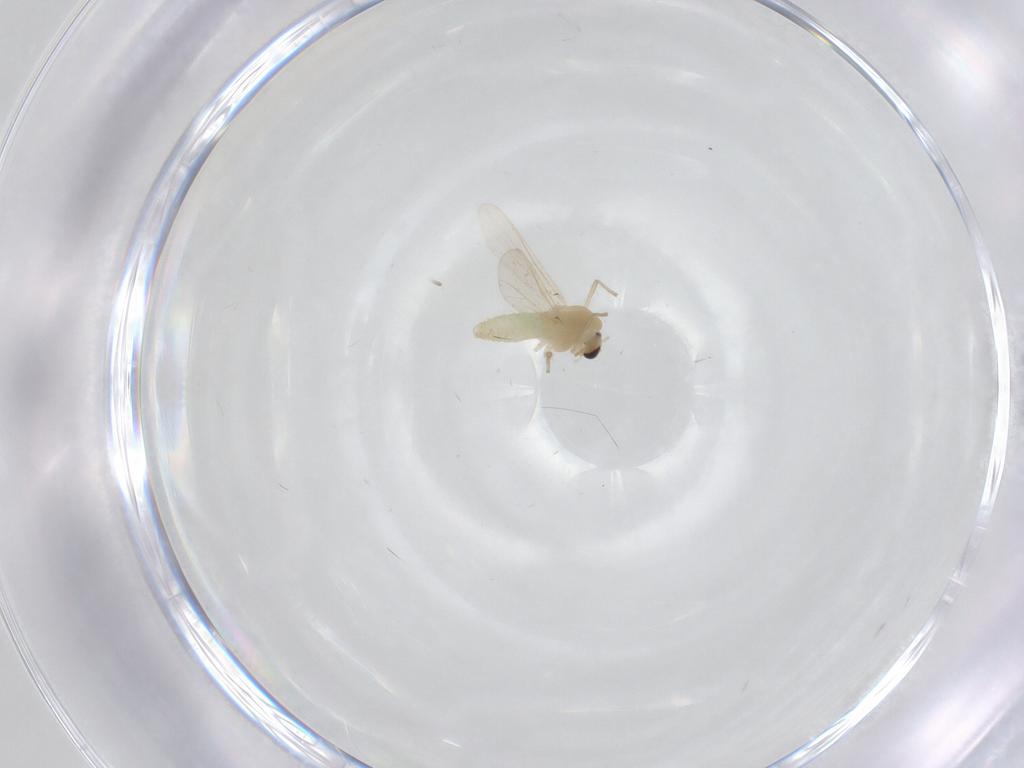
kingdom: Animalia
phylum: Arthropoda
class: Insecta
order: Diptera
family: Chironomidae
